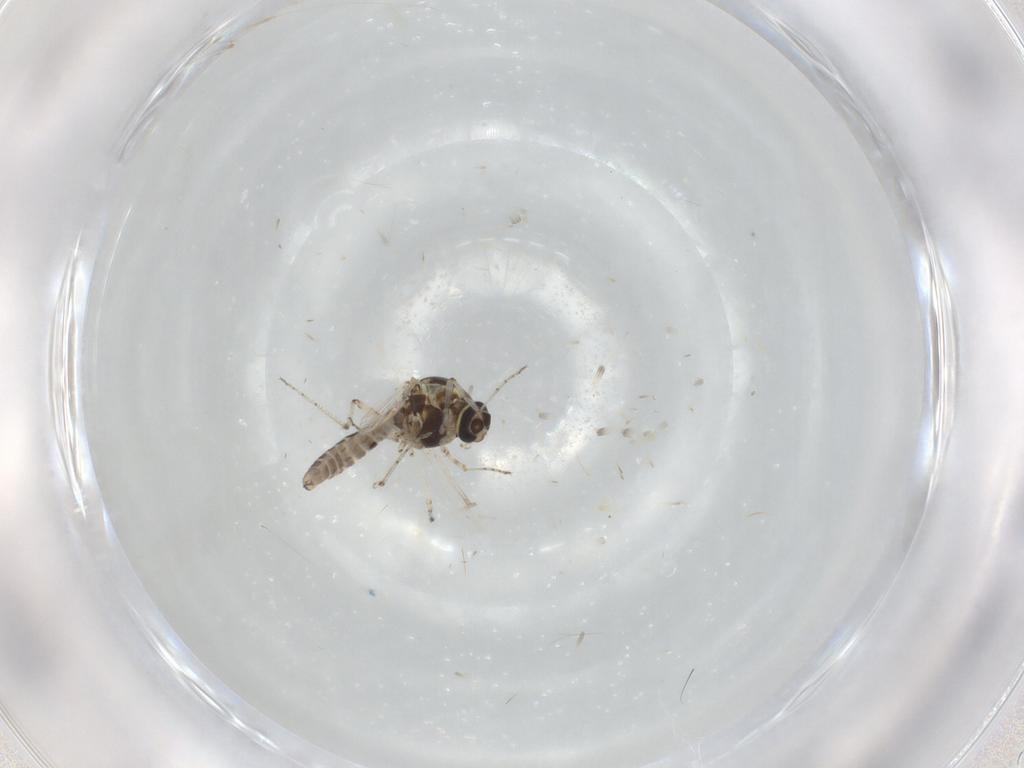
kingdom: Animalia
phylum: Arthropoda
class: Insecta
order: Diptera
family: Ceratopogonidae
